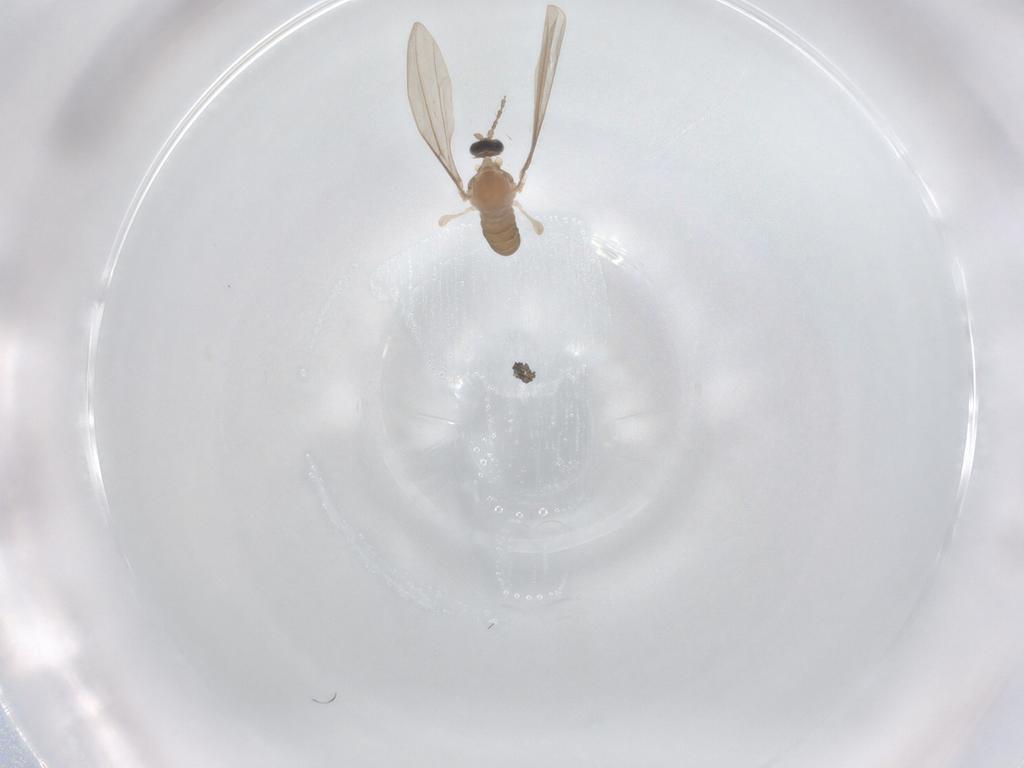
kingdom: Animalia
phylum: Arthropoda
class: Insecta
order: Diptera
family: Cecidomyiidae
